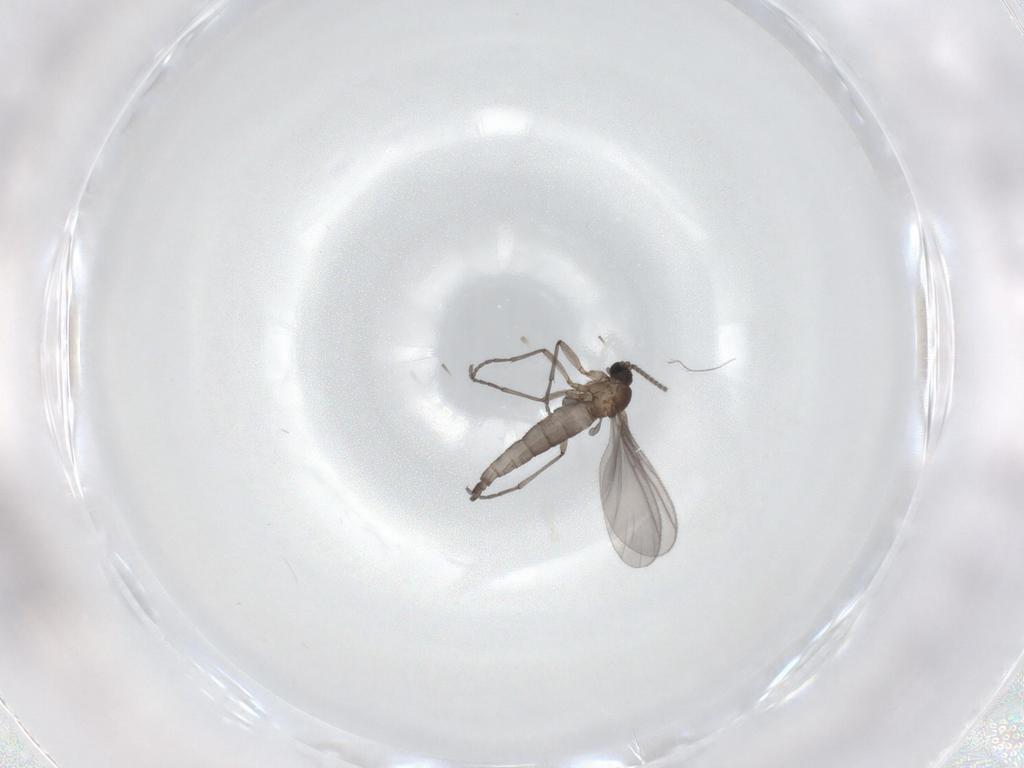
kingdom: Animalia
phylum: Arthropoda
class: Insecta
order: Diptera
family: Sciaridae
